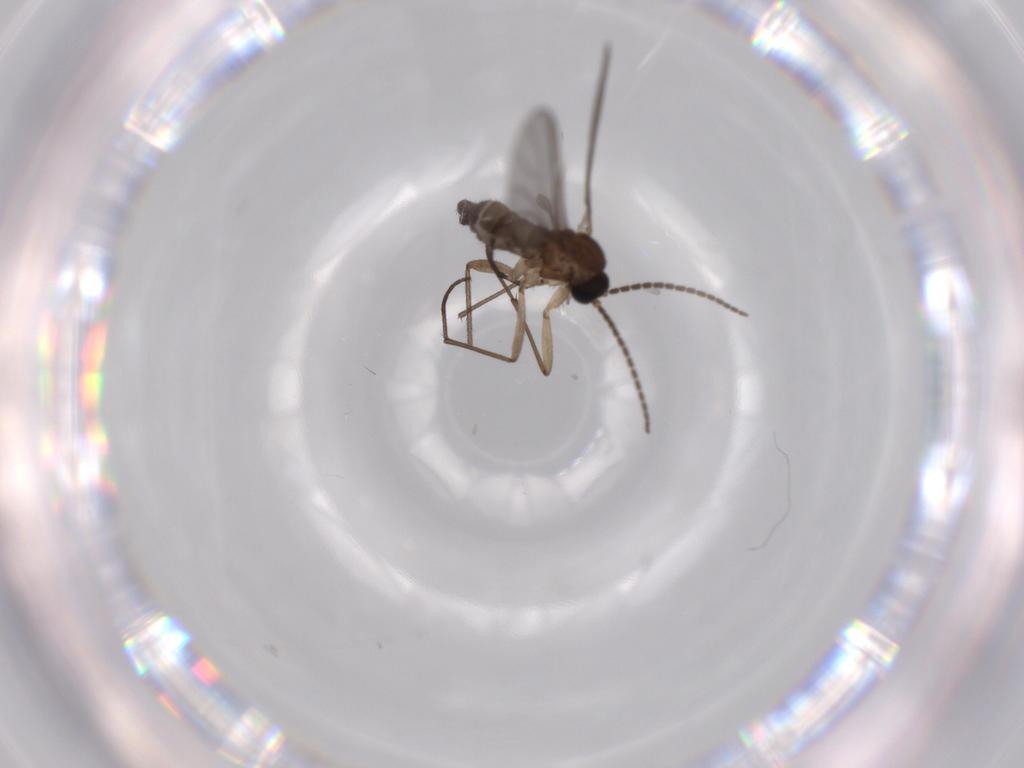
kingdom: Animalia
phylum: Arthropoda
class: Insecta
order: Diptera
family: Sciaridae
